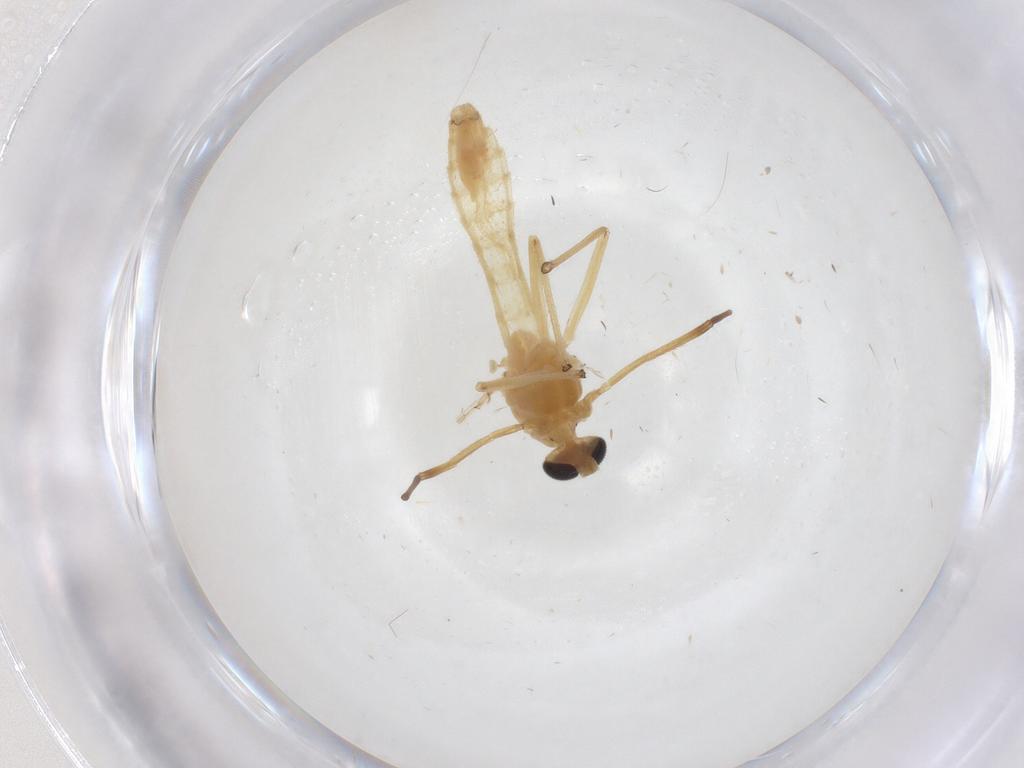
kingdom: Animalia
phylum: Arthropoda
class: Insecta
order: Diptera
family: Chironomidae
